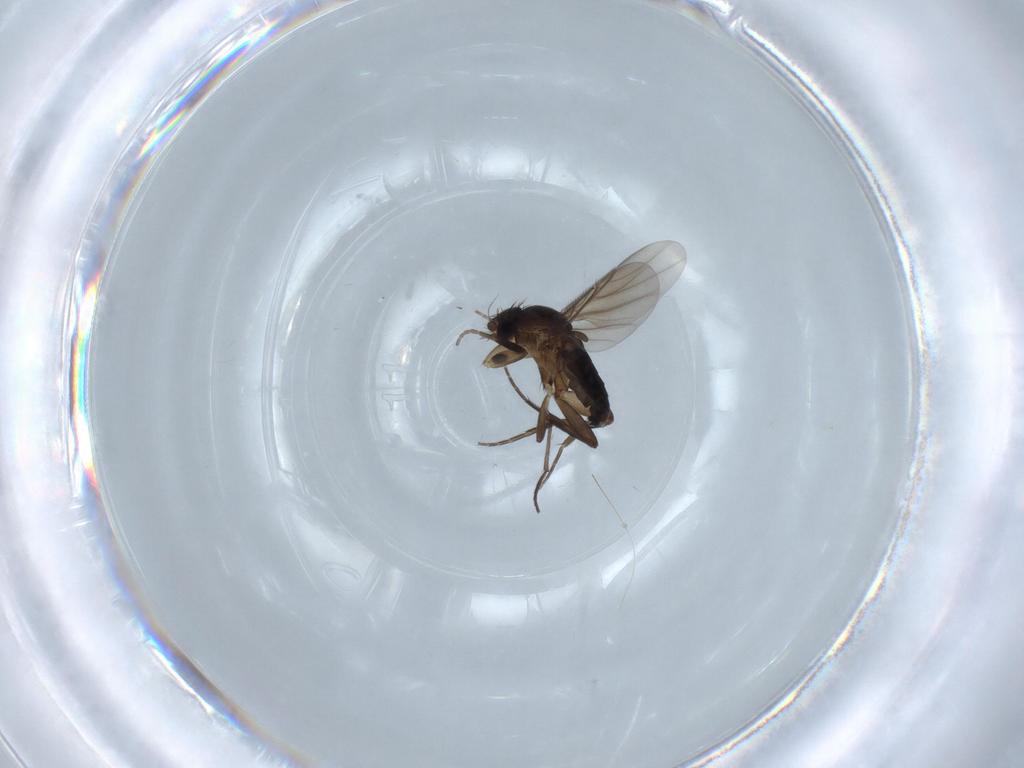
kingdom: Animalia
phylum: Arthropoda
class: Insecta
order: Diptera
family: Phoridae
